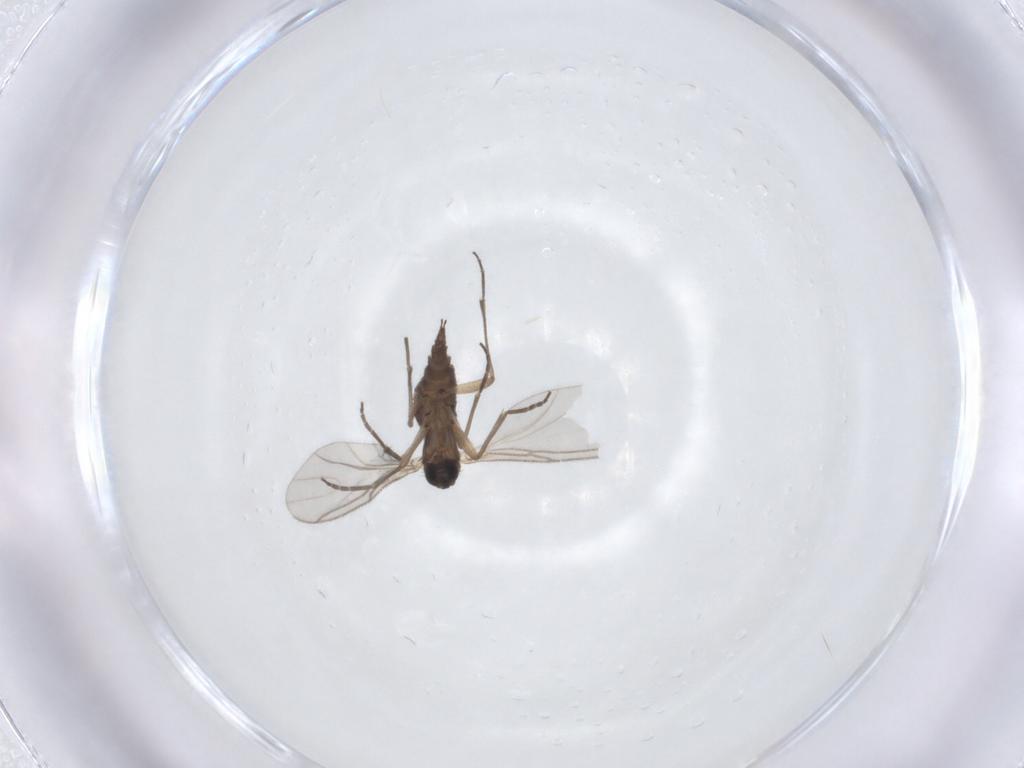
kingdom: Animalia
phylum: Arthropoda
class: Insecta
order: Diptera
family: Sciaridae
